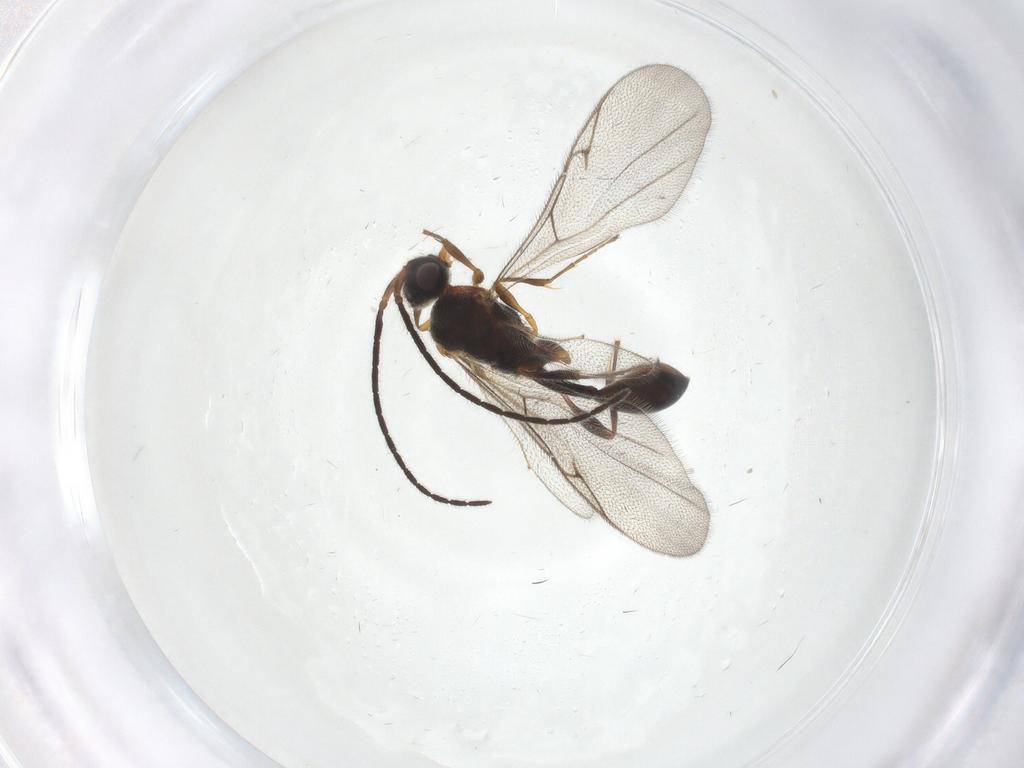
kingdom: Animalia
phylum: Arthropoda
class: Insecta
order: Hymenoptera
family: Diapriidae
